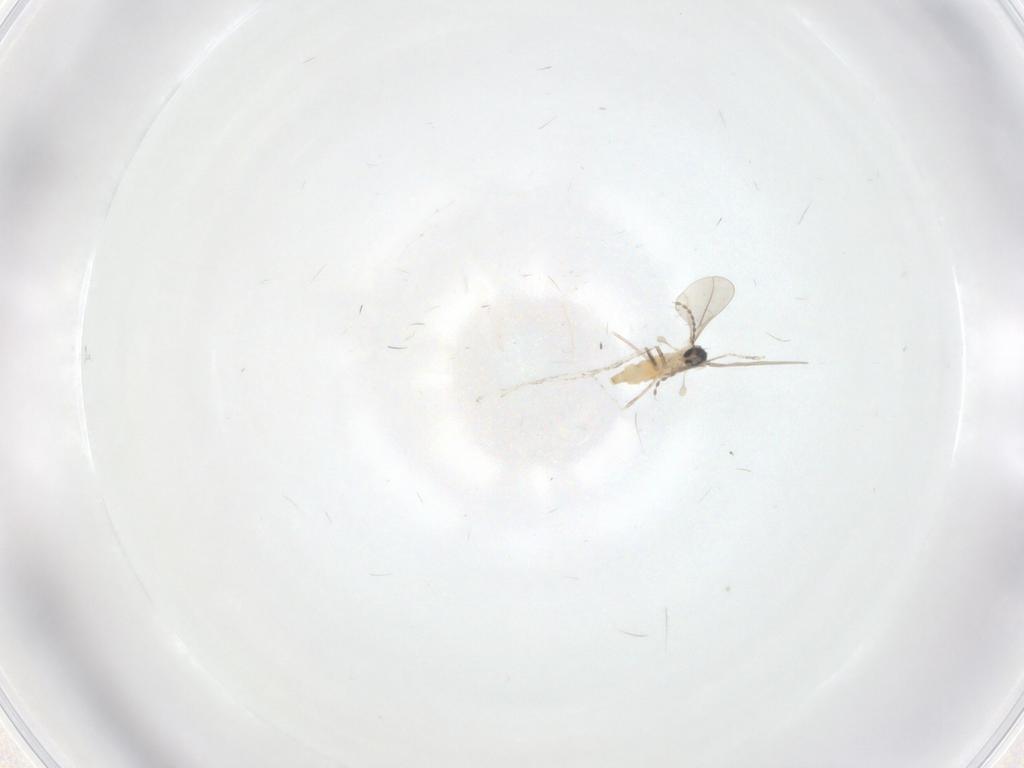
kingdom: Animalia
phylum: Arthropoda
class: Insecta
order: Diptera
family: Cecidomyiidae
